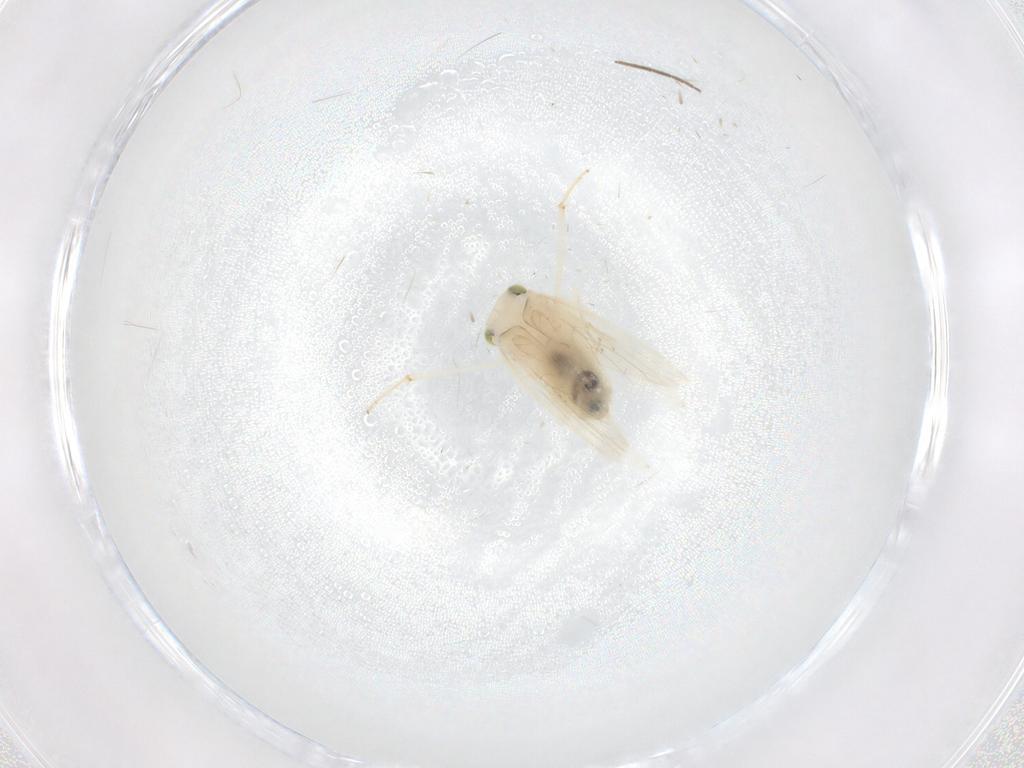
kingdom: Animalia
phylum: Arthropoda
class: Insecta
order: Psocodea
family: Lepidopsocidae
